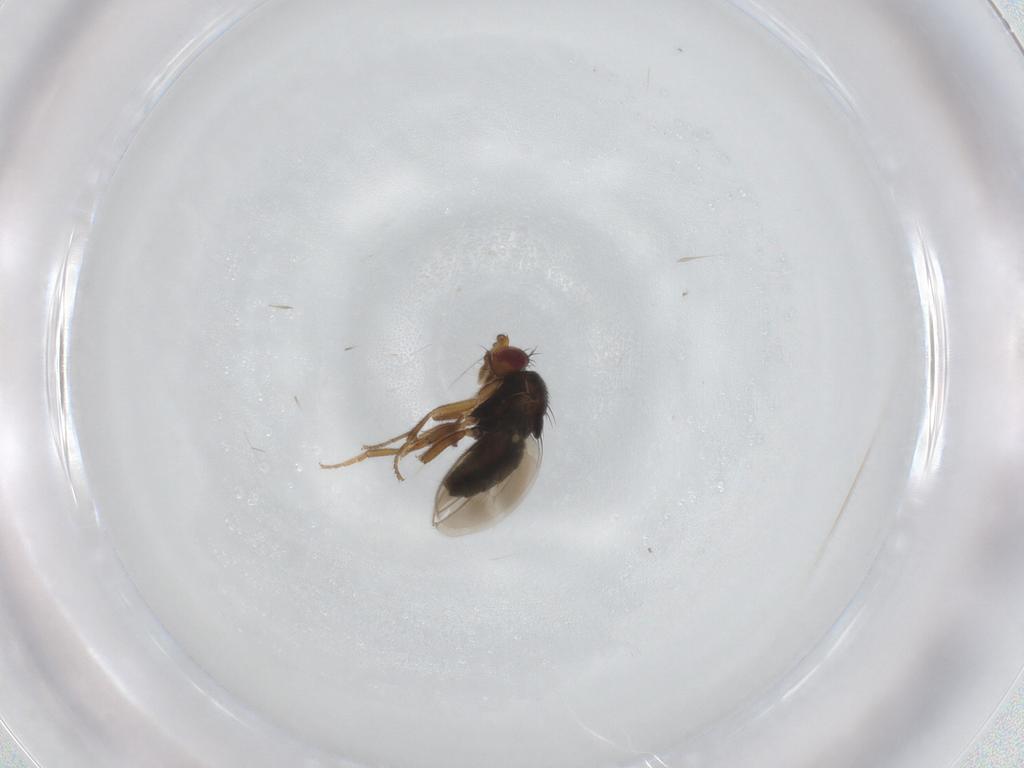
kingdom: Animalia
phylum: Arthropoda
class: Insecta
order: Diptera
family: Sphaeroceridae
